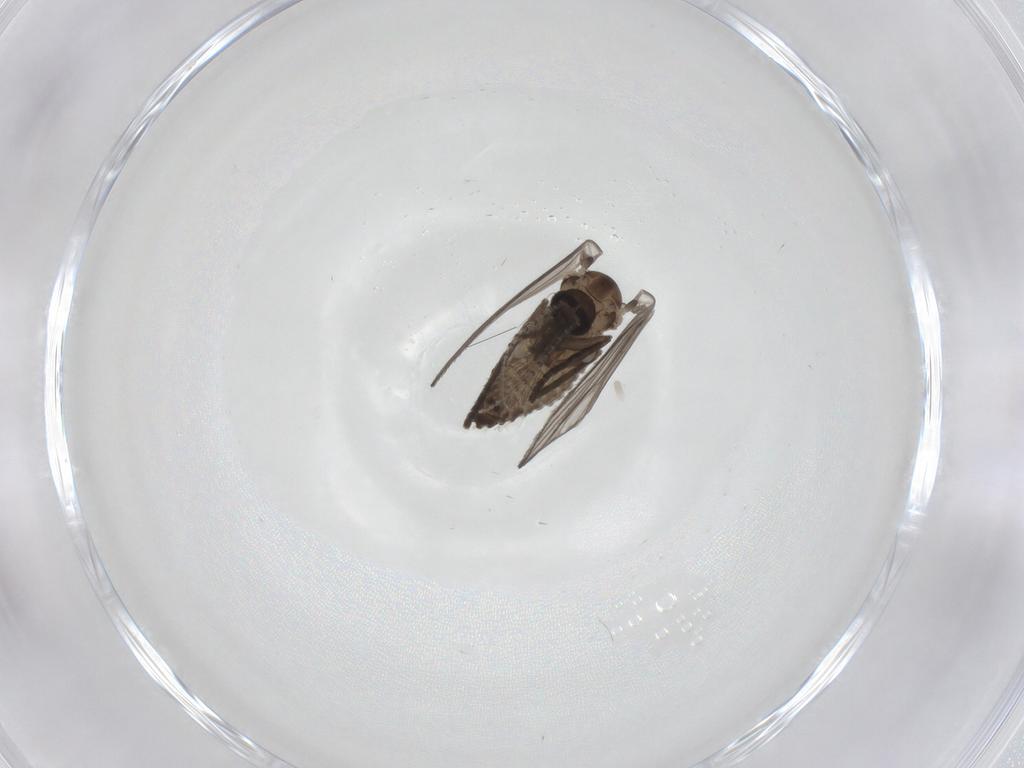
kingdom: Animalia
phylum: Arthropoda
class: Insecta
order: Diptera
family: Psychodidae
